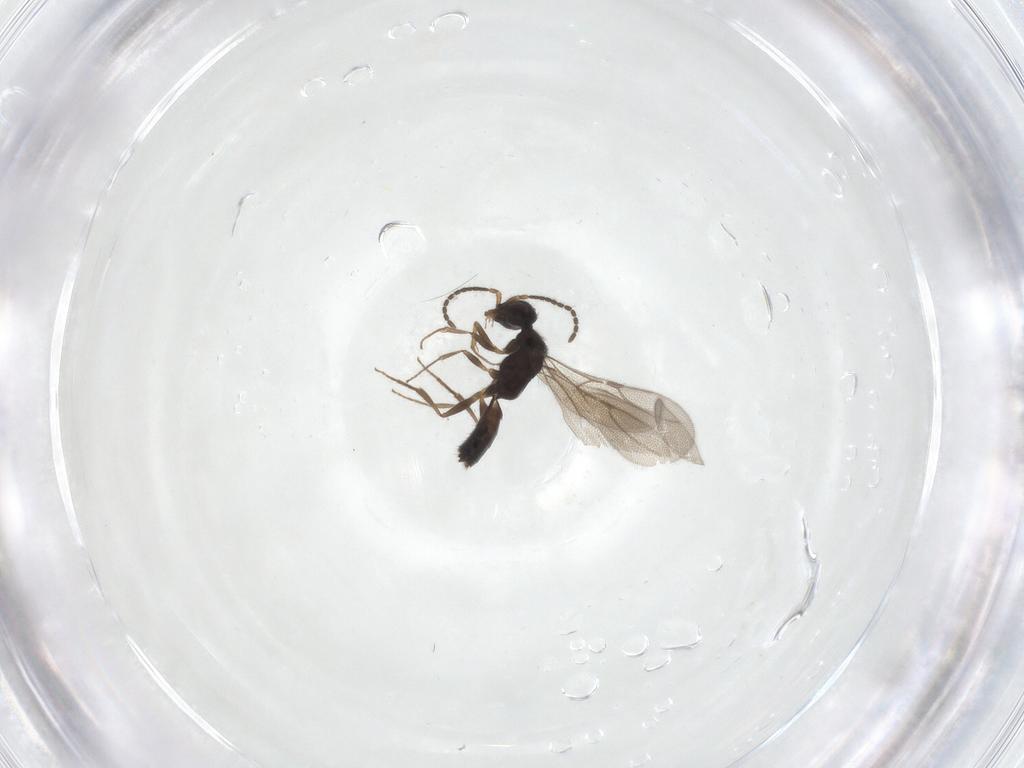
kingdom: Animalia
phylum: Arthropoda
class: Insecta
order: Hymenoptera
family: Bethylidae
